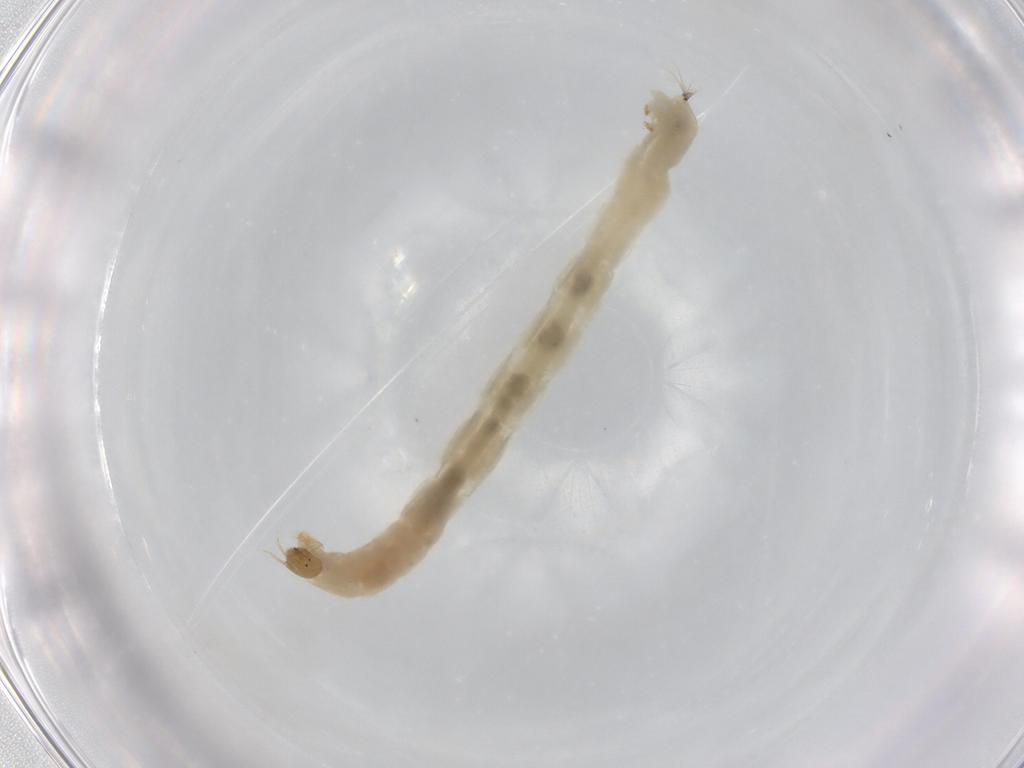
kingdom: Animalia
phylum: Arthropoda
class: Insecta
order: Diptera
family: Chironomidae
